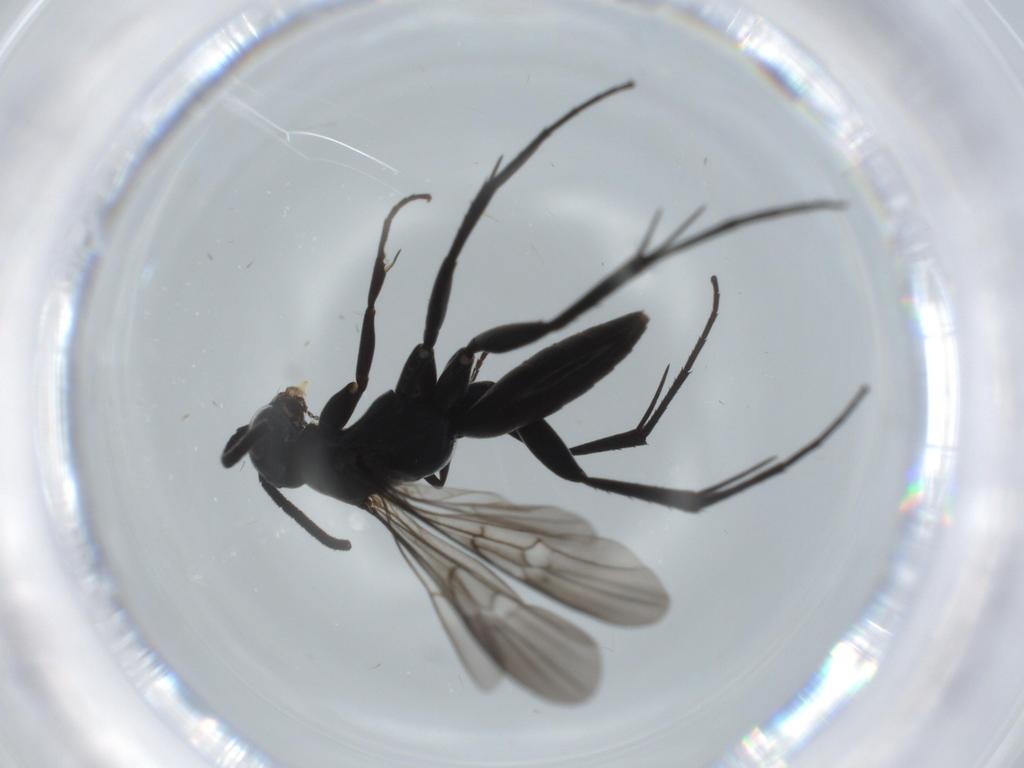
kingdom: Animalia
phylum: Arthropoda
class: Insecta
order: Hymenoptera
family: Pompilidae
